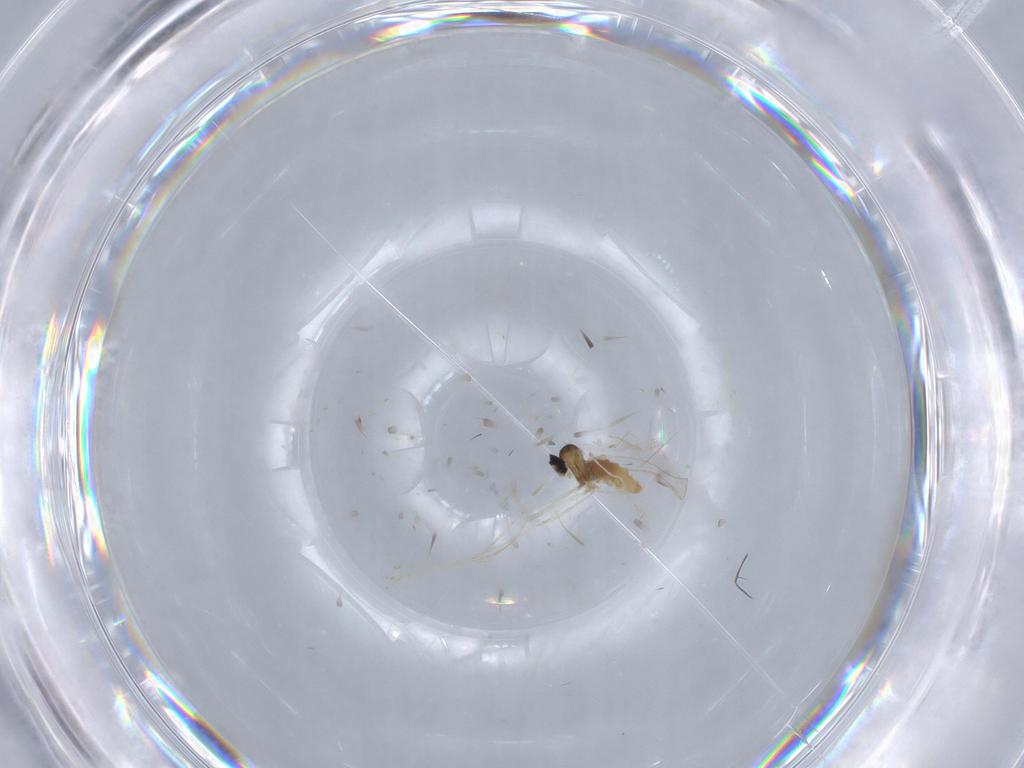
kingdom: Animalia
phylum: Arthropoda
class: Insecta
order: Diptera
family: Cecidomyiidae
